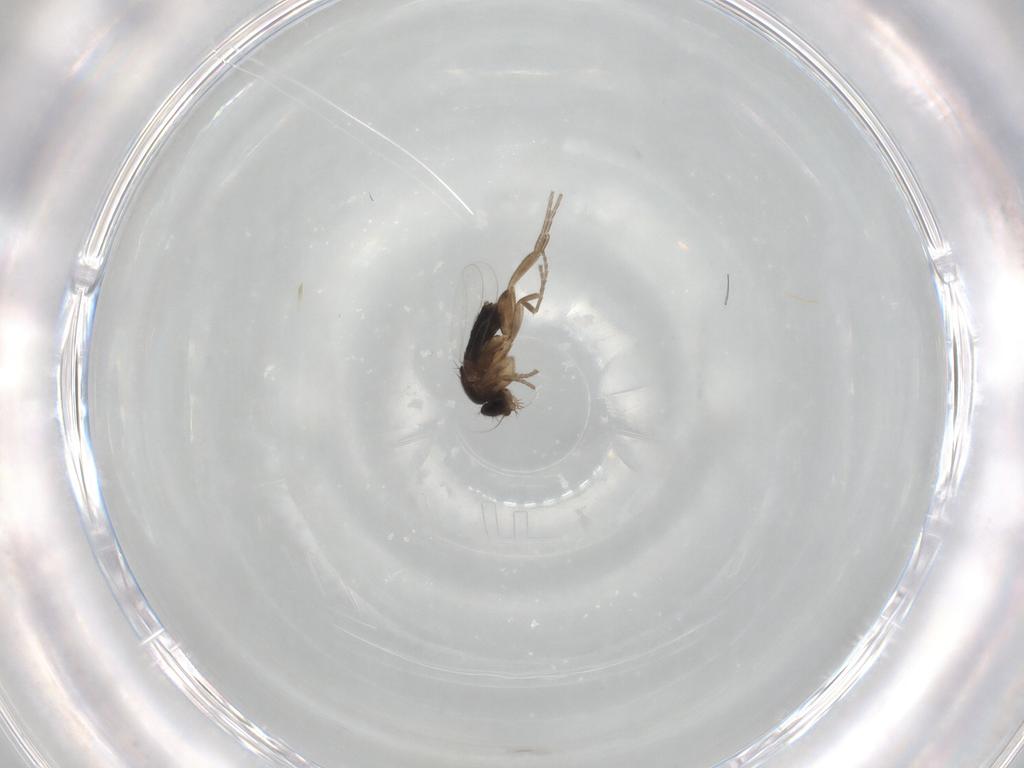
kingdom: Animalia
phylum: Arthropoda
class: Insecta
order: Diptera
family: Phoridae
